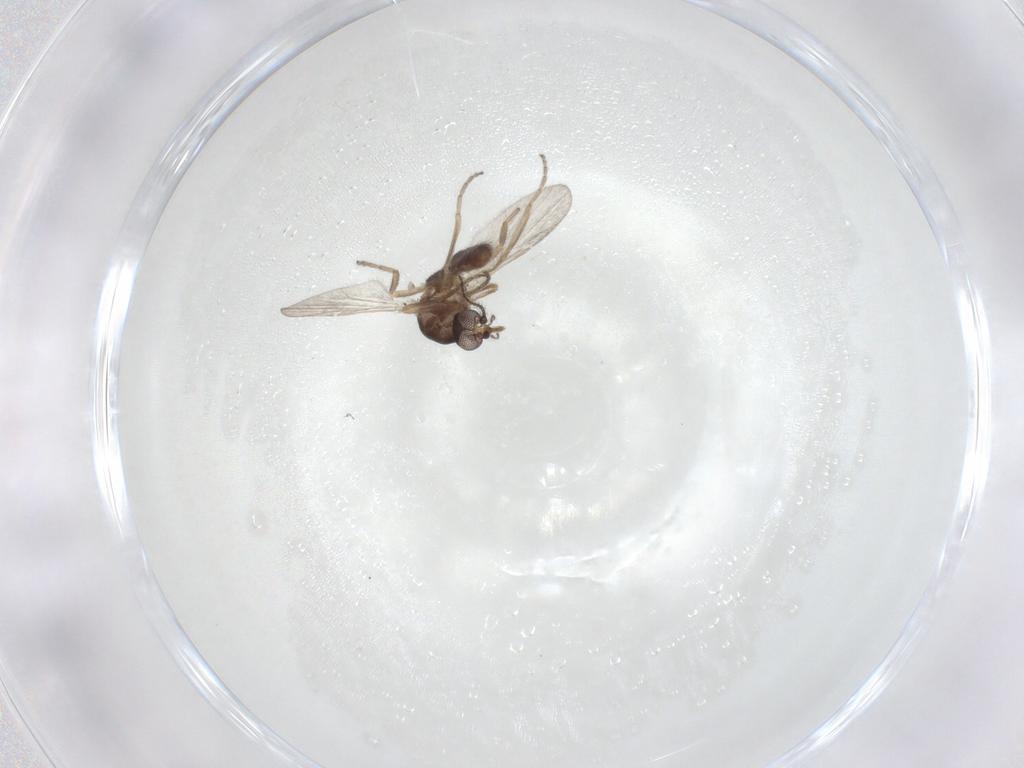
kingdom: Animalia
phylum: Arthropoda
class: Insecta
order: Diptera
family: Ceratopogonidae
